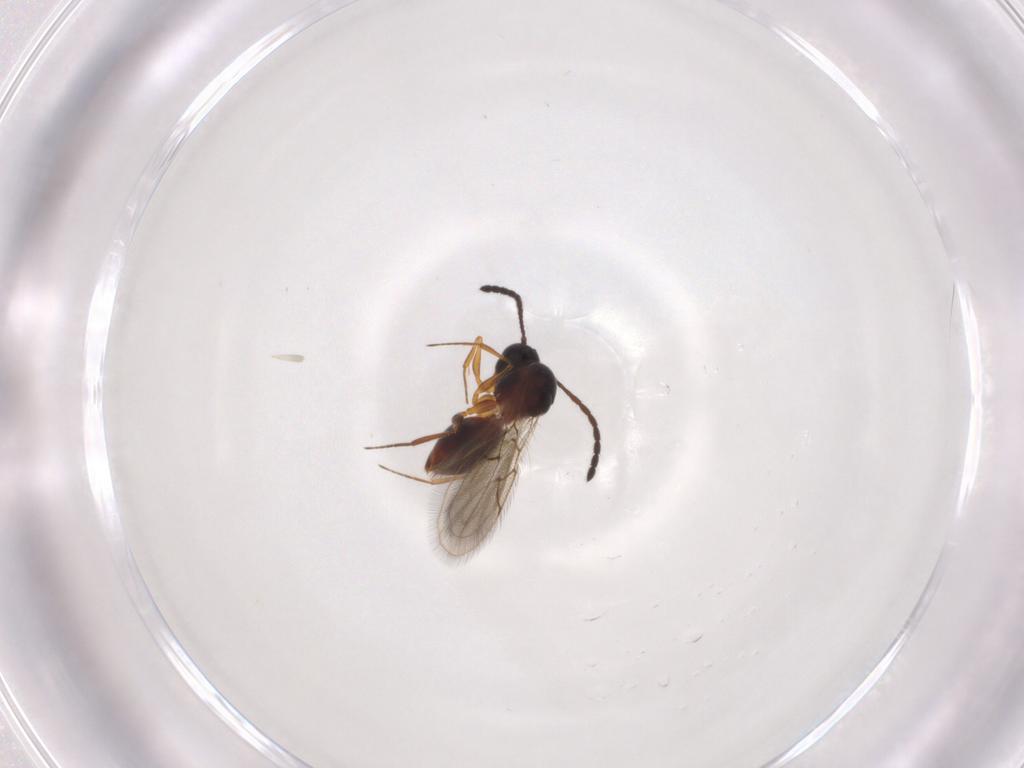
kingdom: Animalia
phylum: Arthropoda
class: Insecta
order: Hymenoptera
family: Figitidae
